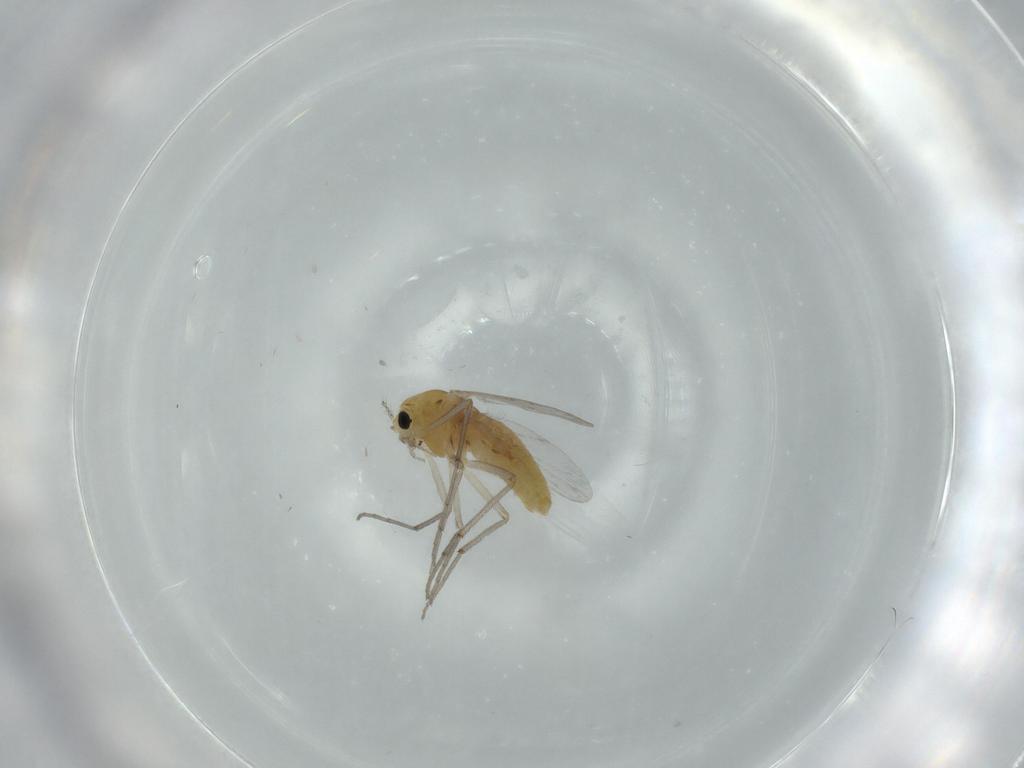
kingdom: Animalia
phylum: Arthropoda
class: Insecta
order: Diptera
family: Chironomidae
